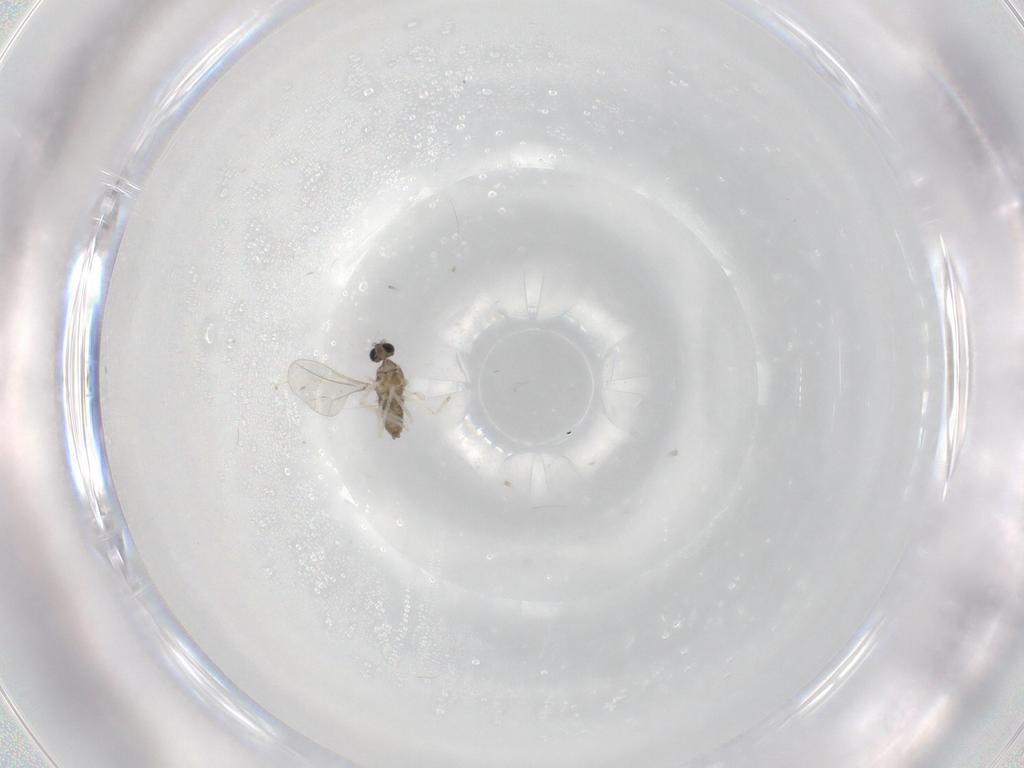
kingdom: Animalia
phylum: Arthropoda
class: Insecta
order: Diptera
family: Cecidomyiidae
